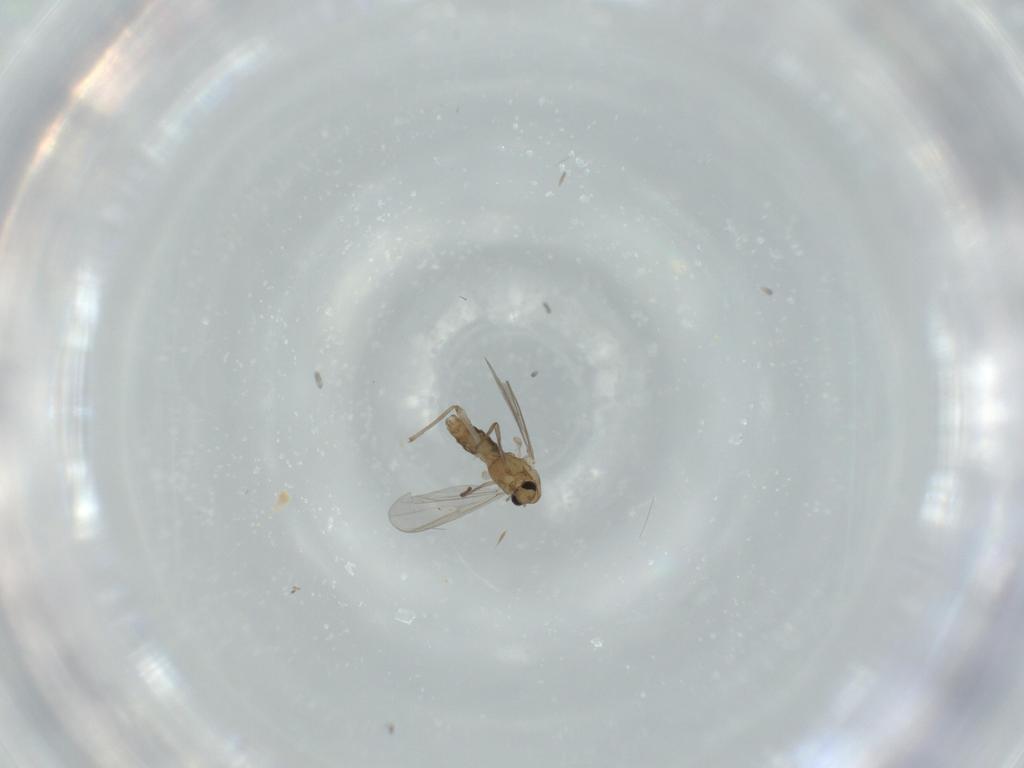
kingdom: Animalia
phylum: Arthropoda
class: Insecta
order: Diptera
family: Chironomidae
